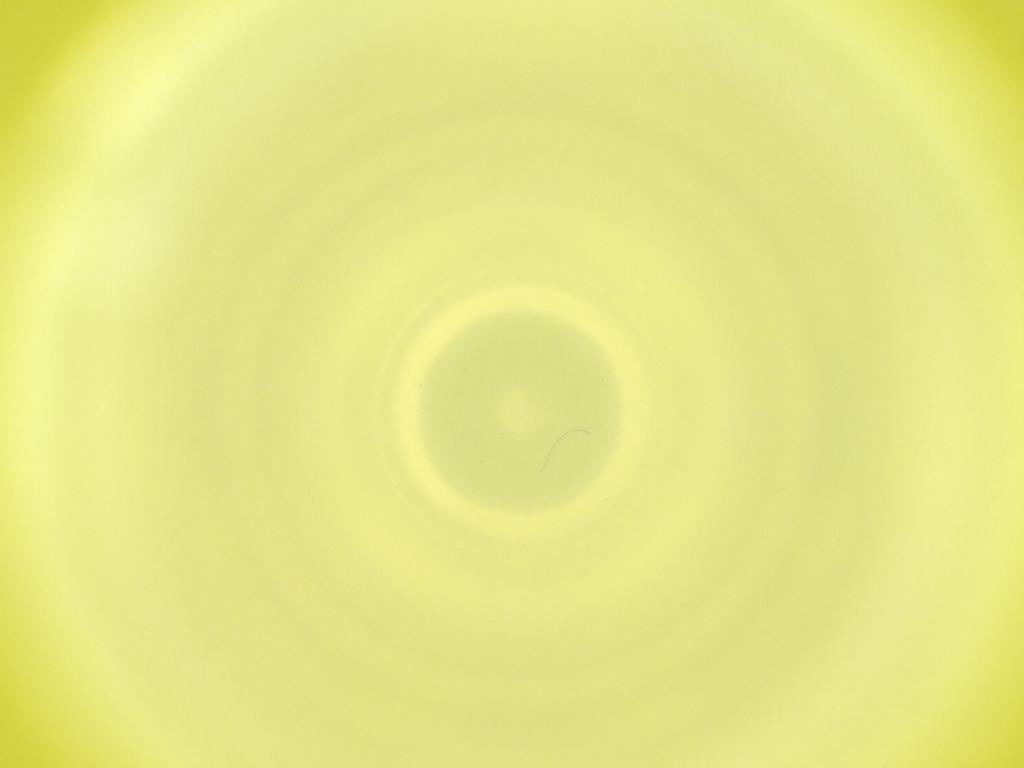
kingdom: Animalia
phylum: Arthropoda
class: Insecta
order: Diptera
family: Cecidomyiidae
